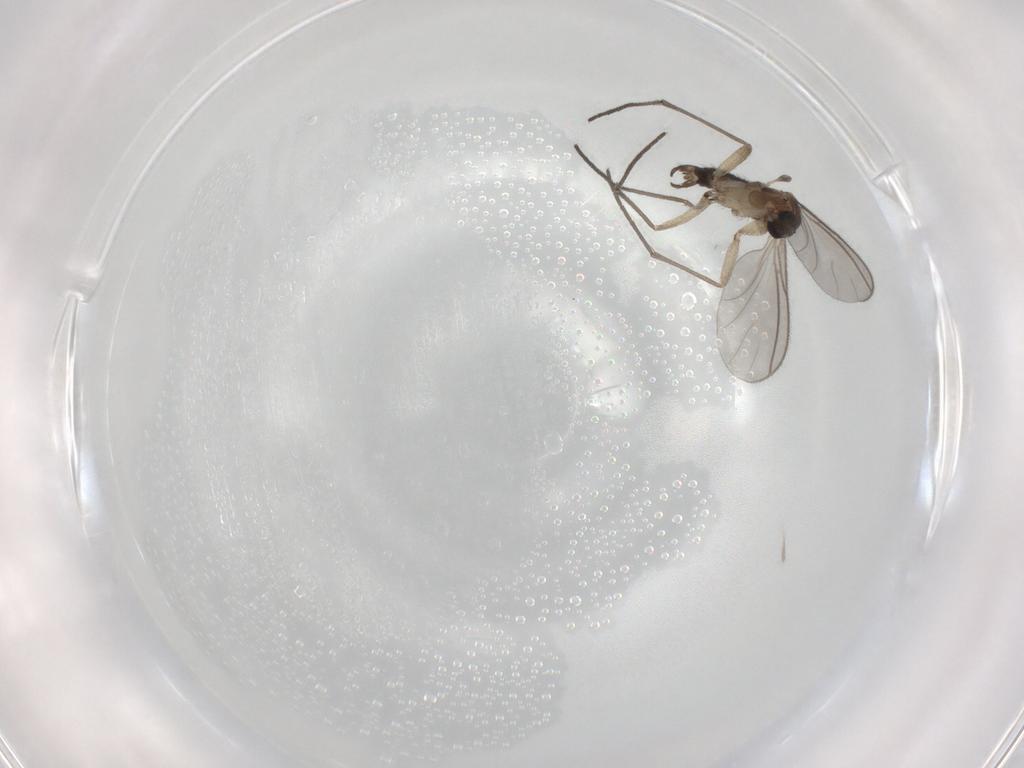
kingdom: Animalia
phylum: Arthropoda
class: Insecta
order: Diptera
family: Sciaridae
